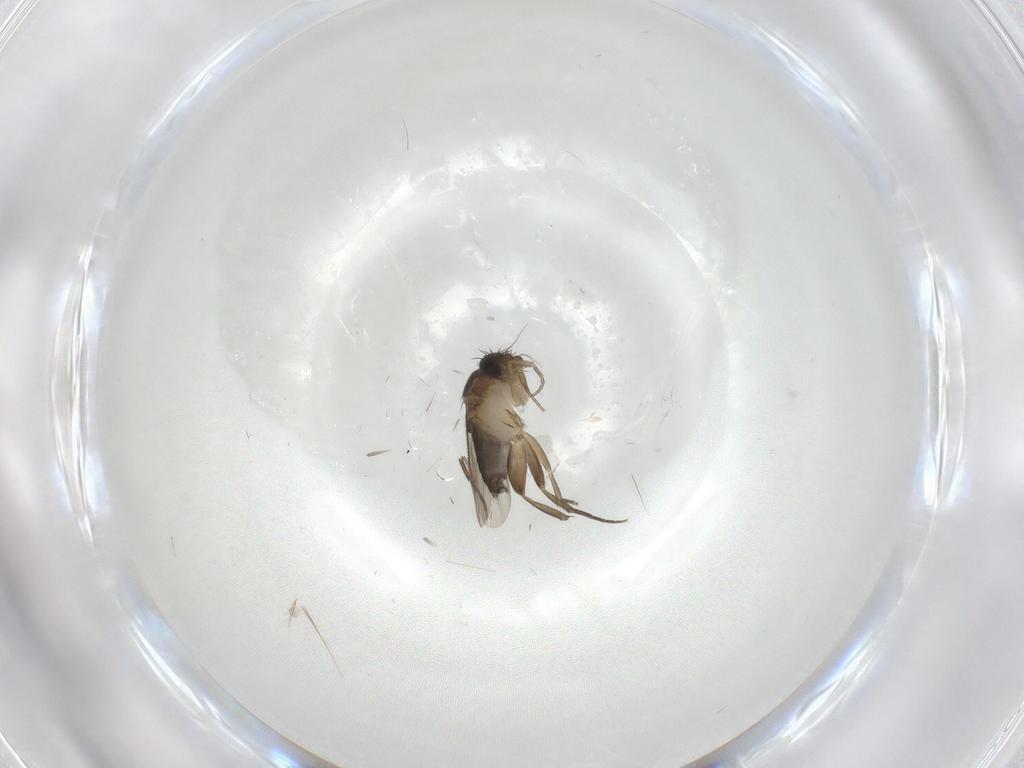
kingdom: Animalia
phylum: Arthropoda
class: Insecta
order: Diptera
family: Phoridae
